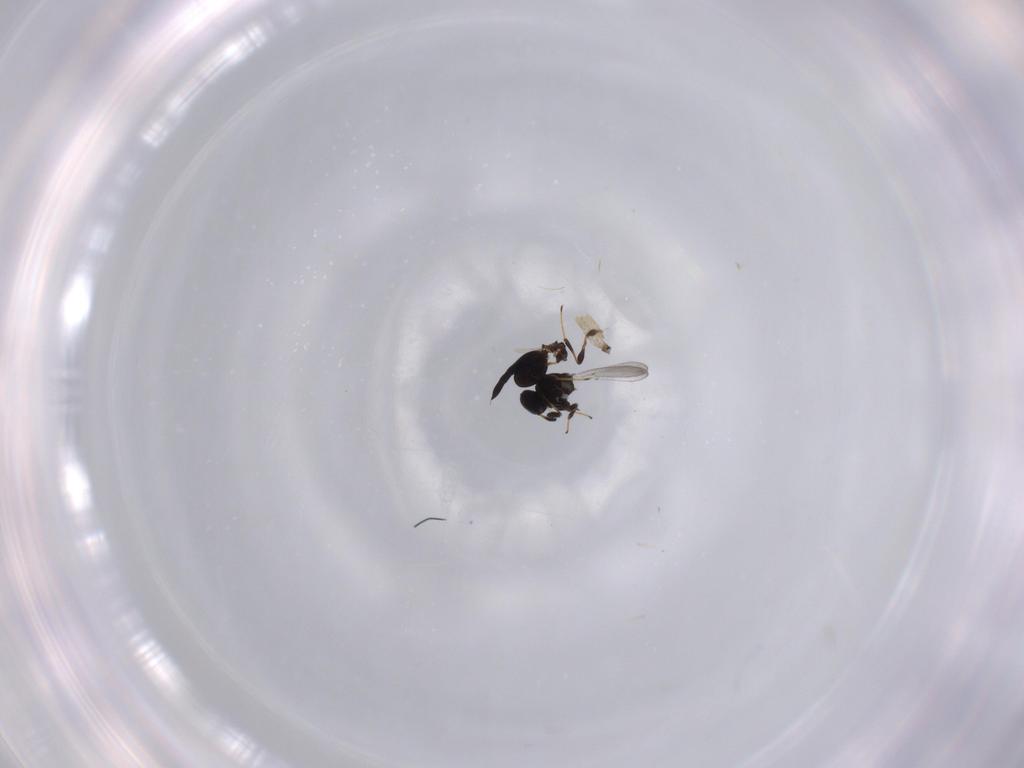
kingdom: Animalia
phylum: Arthropoda
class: Insecta
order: Hymenoptera
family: Platygastridae
